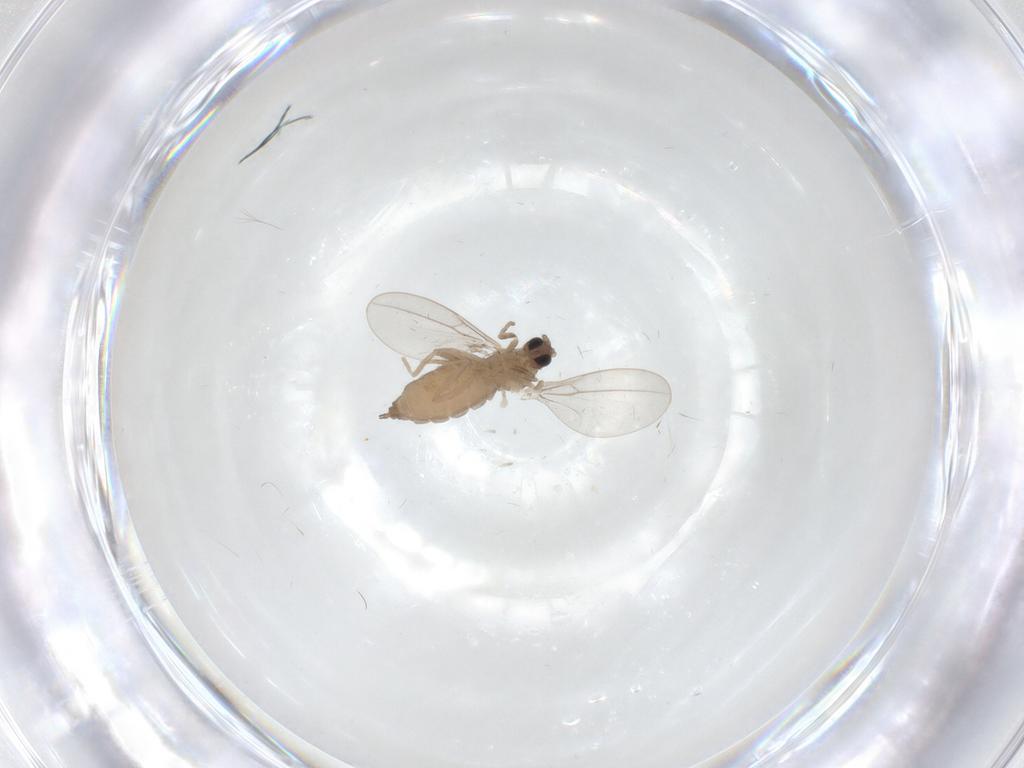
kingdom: Animalia
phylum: Arthropoda
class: Insecta
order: Diptera
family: Cecidomyiidae
